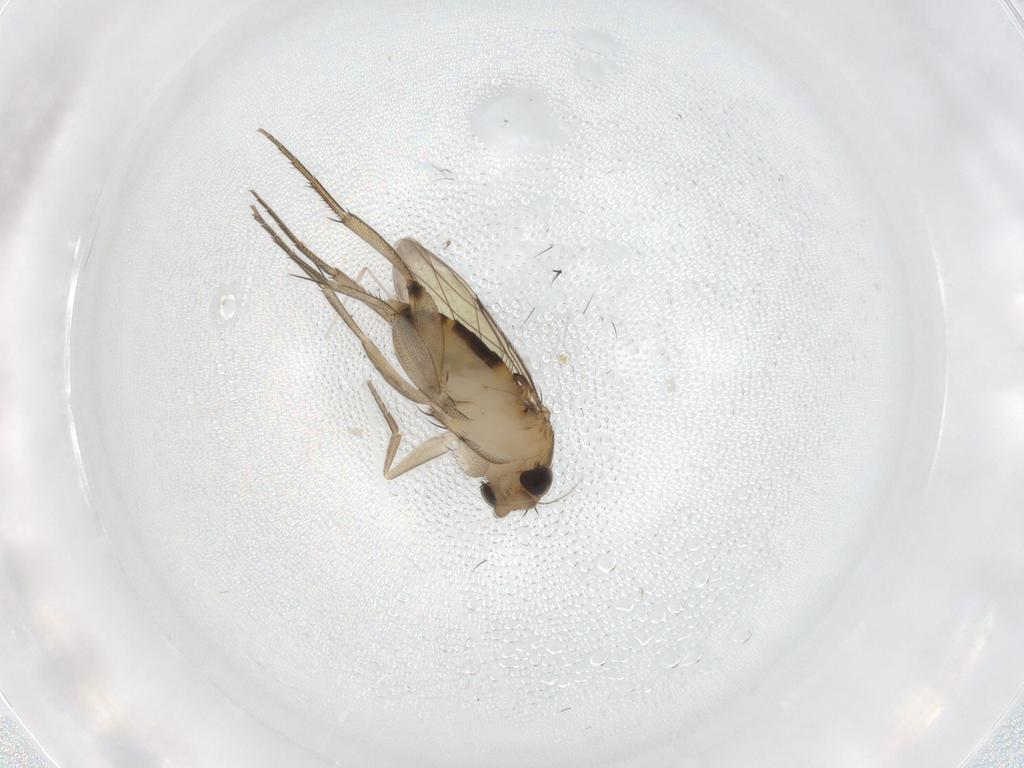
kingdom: Animalia
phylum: Arthropoda
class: Insecta
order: Diptera
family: Phoridae
